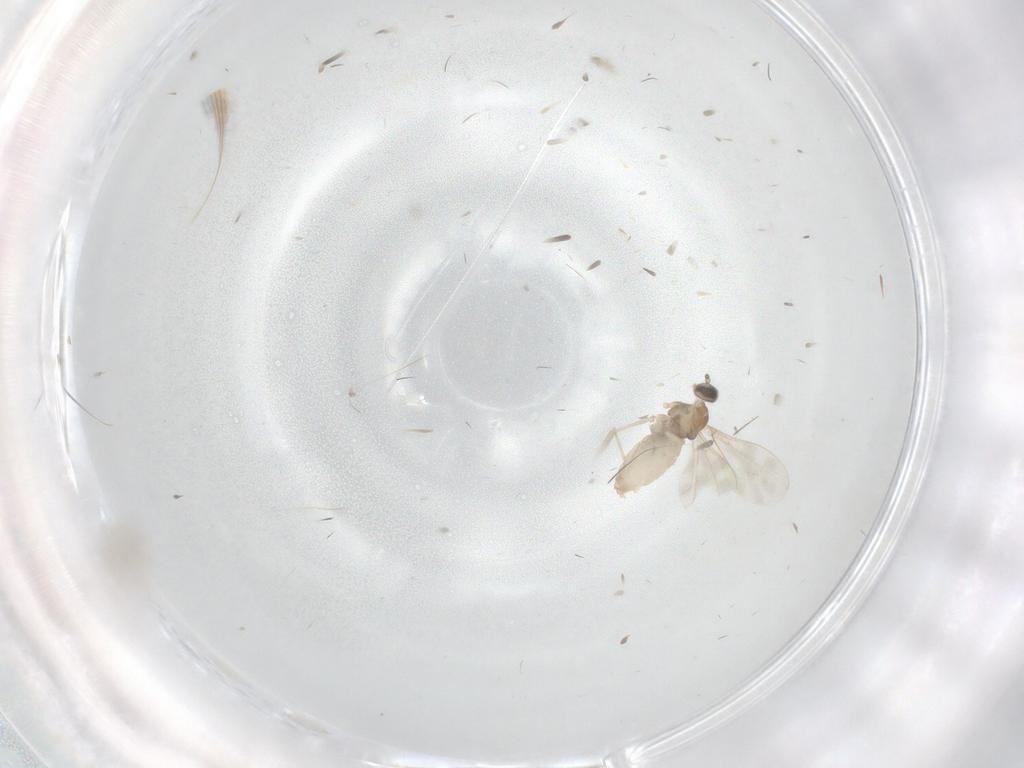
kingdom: Animalia
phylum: Arthropoda
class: Insecta
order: Diptera
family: Cecidomyiidae
